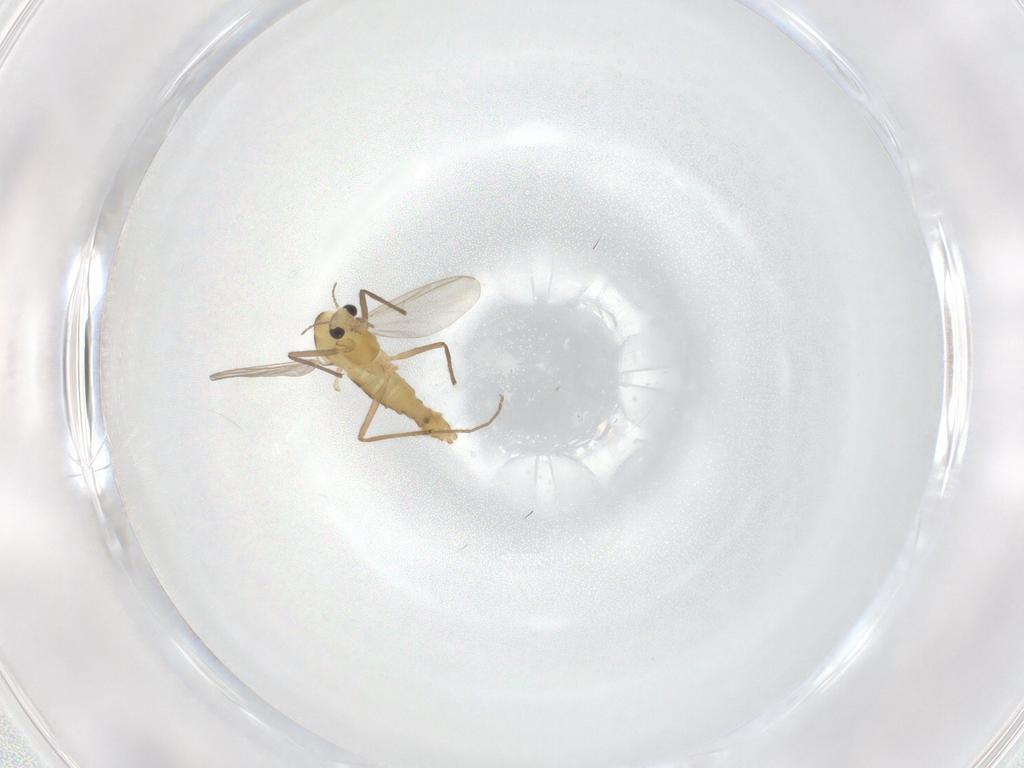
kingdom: Animalia
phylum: Arthropoda
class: Insecta
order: Diptera
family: Chironomidae
